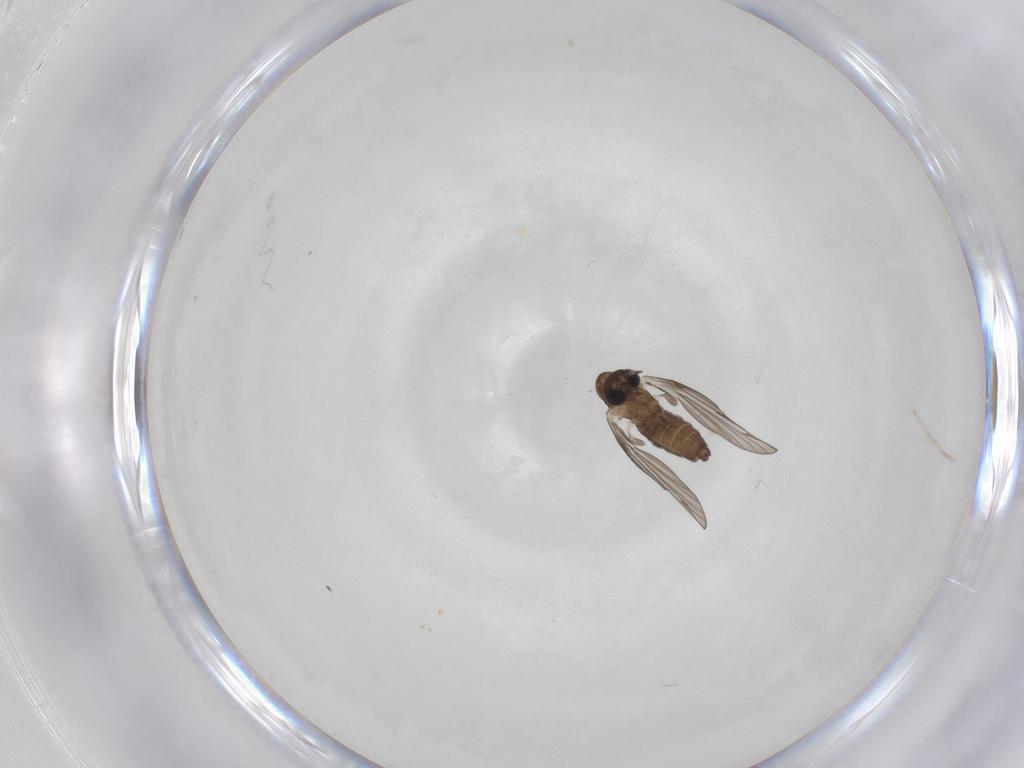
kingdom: Animalia
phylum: Arthropoda
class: Insecta
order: Diptera
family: Psychodidae
